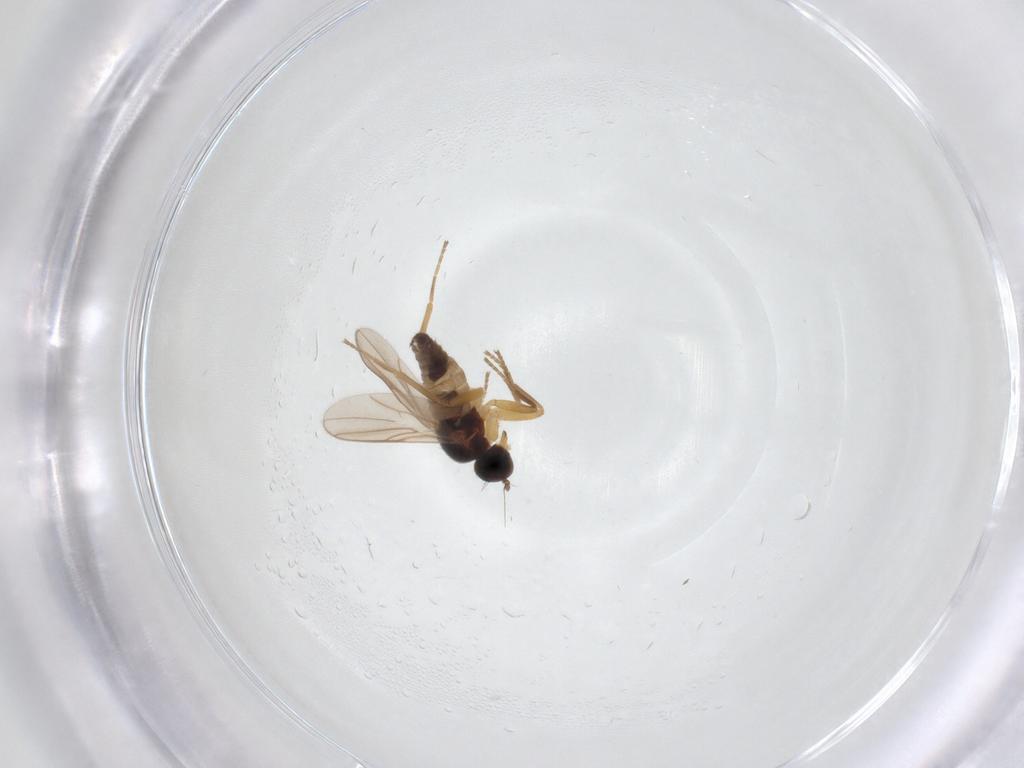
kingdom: Animalia
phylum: Arthropoda
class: Insecta
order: Diptera
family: Hybotidae
